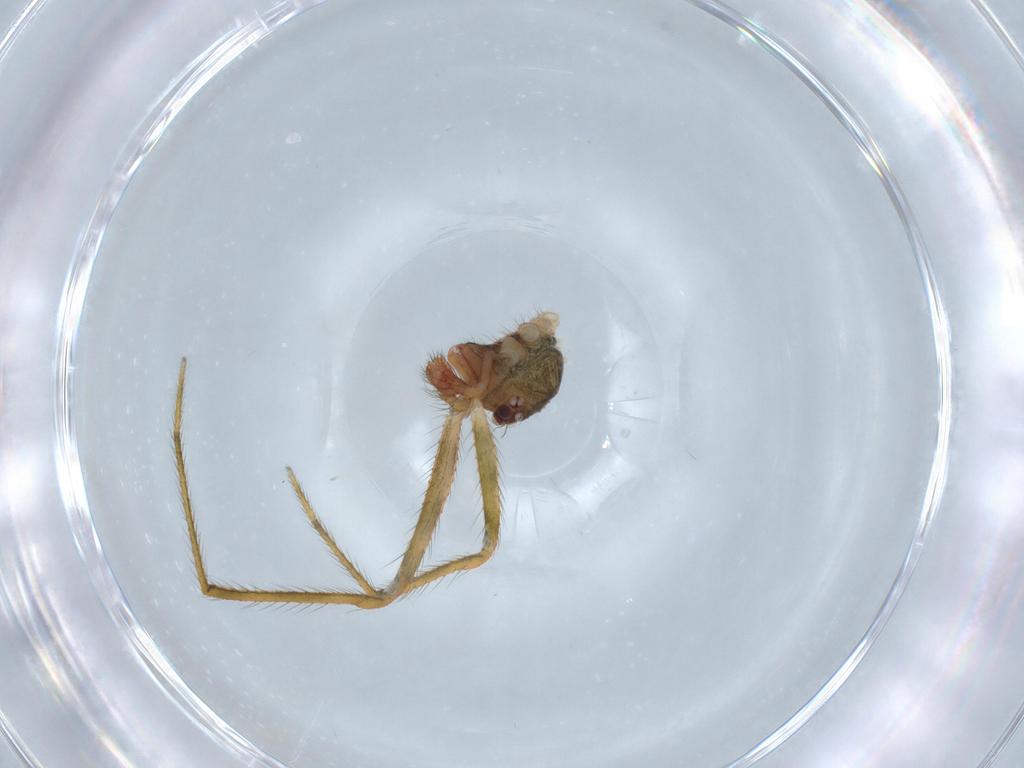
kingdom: Animalia
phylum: Arthropoda
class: Arachnida
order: Araneae
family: Theridiidae
